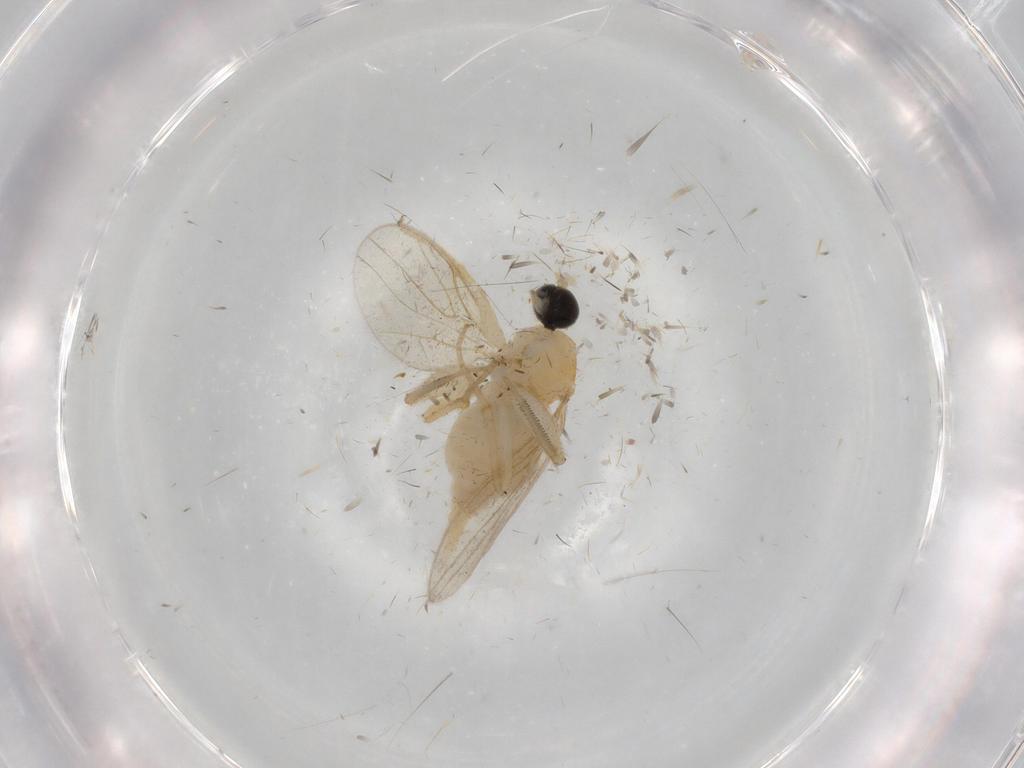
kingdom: Animalia
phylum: Arthropoda
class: Insecta
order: Diptera
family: Hybotidae
